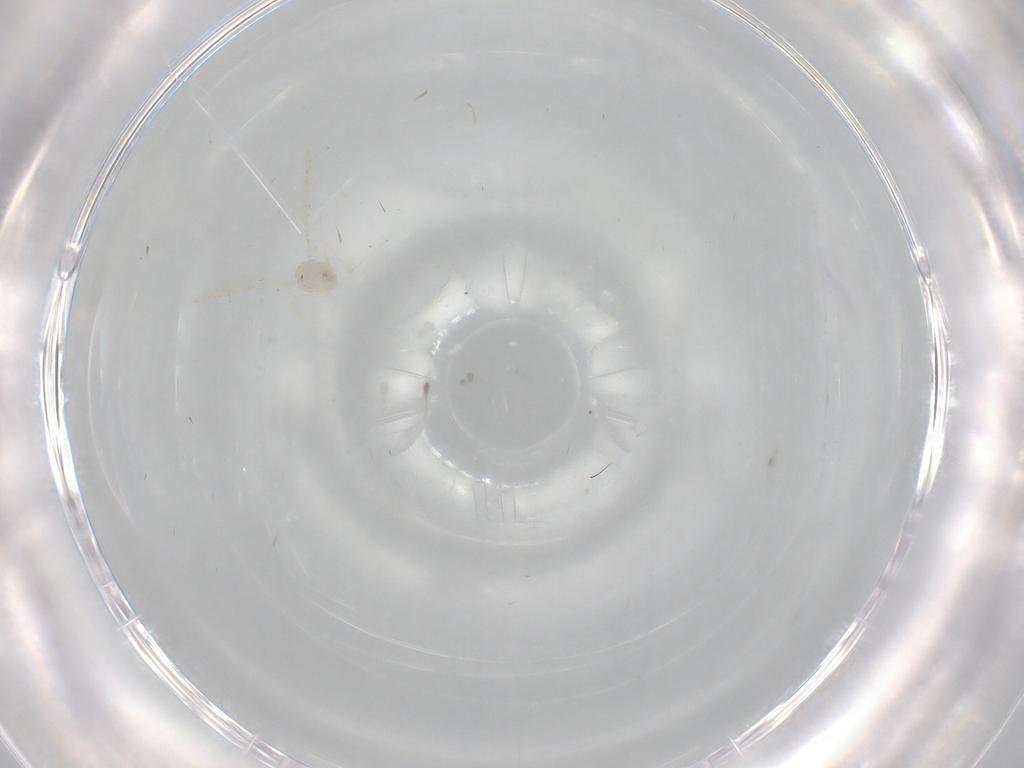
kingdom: Animalia
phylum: Arthropoda
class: Insecta
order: Diptera
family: Cecidomyiidae
